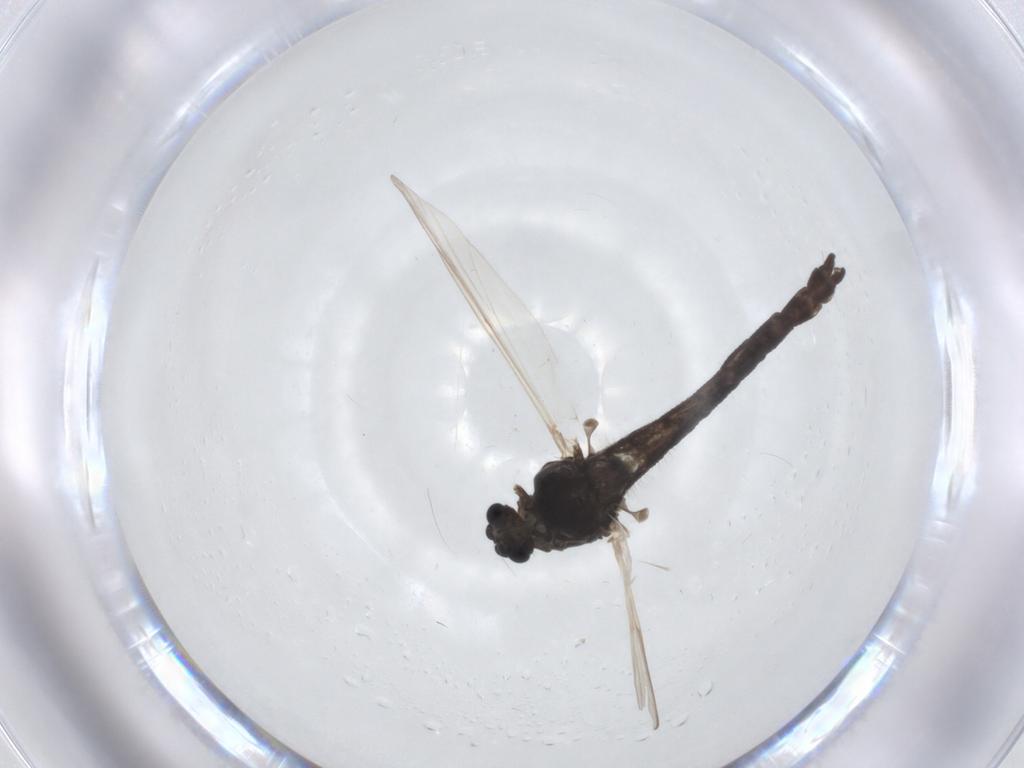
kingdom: Animalia
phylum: Arthropoda
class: Insecta
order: Diptera
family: Chironomidae
